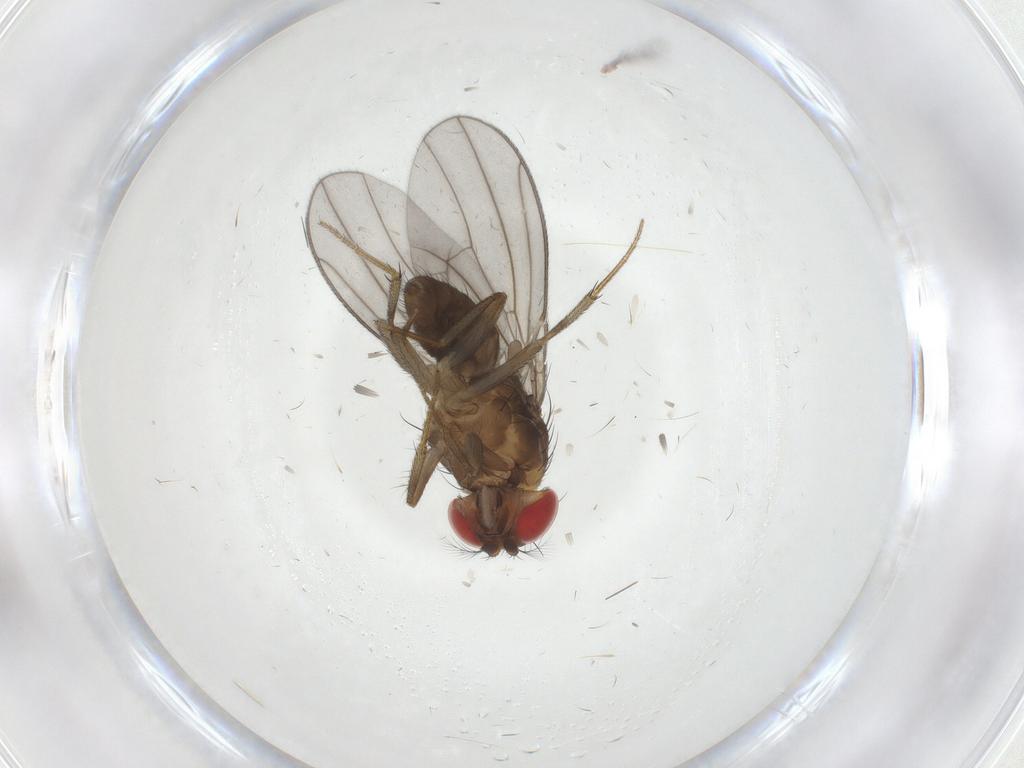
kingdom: Animalia
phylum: Arthropoda
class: Insecta
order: Diptera
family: Drosophilidae
